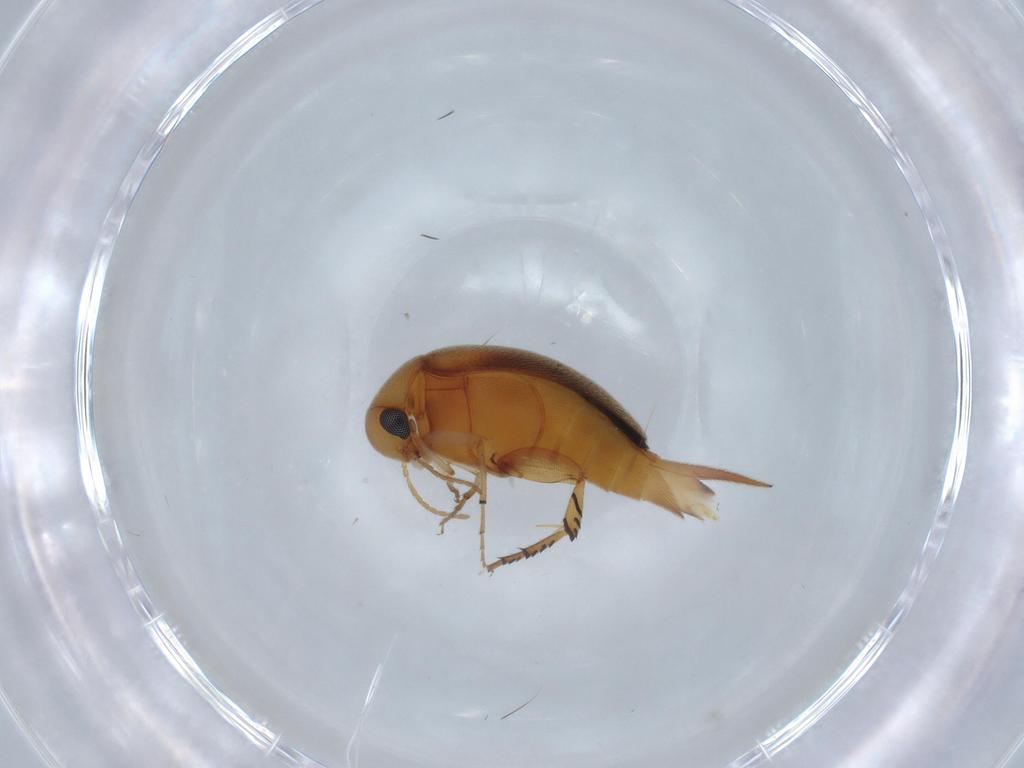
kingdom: Animalia
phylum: Arthropoda
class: Insecta
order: Coleoptera
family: Mordellidae
